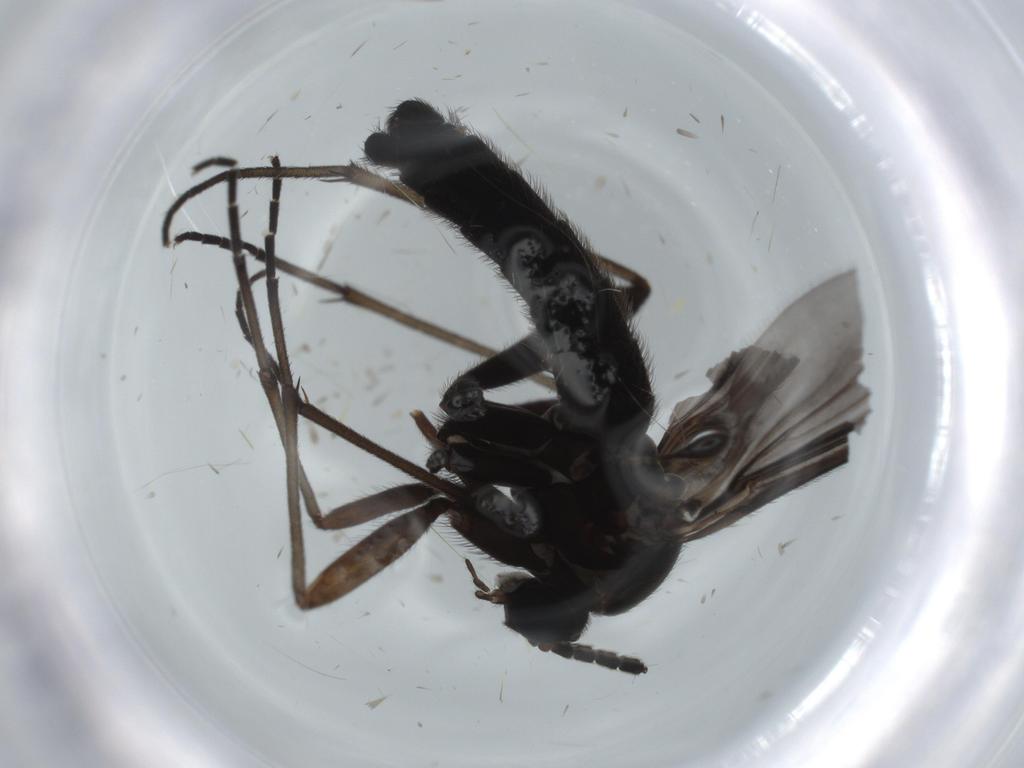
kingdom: Animalia
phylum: Arthropoda
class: Insecta
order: Diptera
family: Sciaridae
